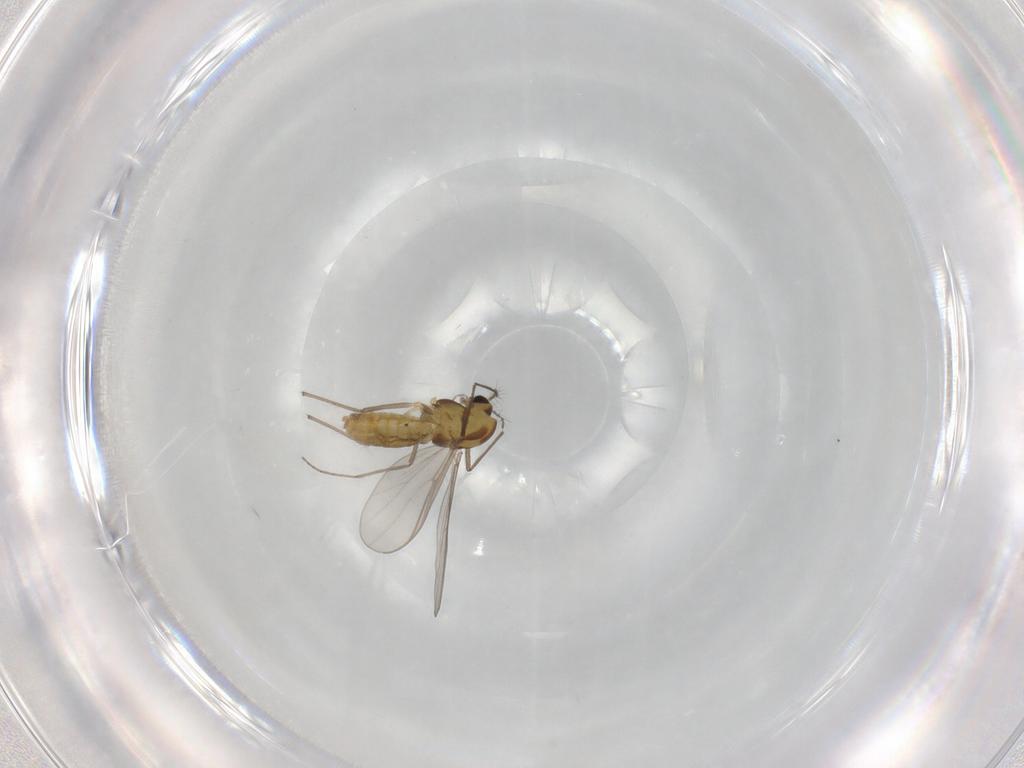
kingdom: Animalia
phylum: Arthropoda
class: Insecta
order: Diptera
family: Chironomidae
